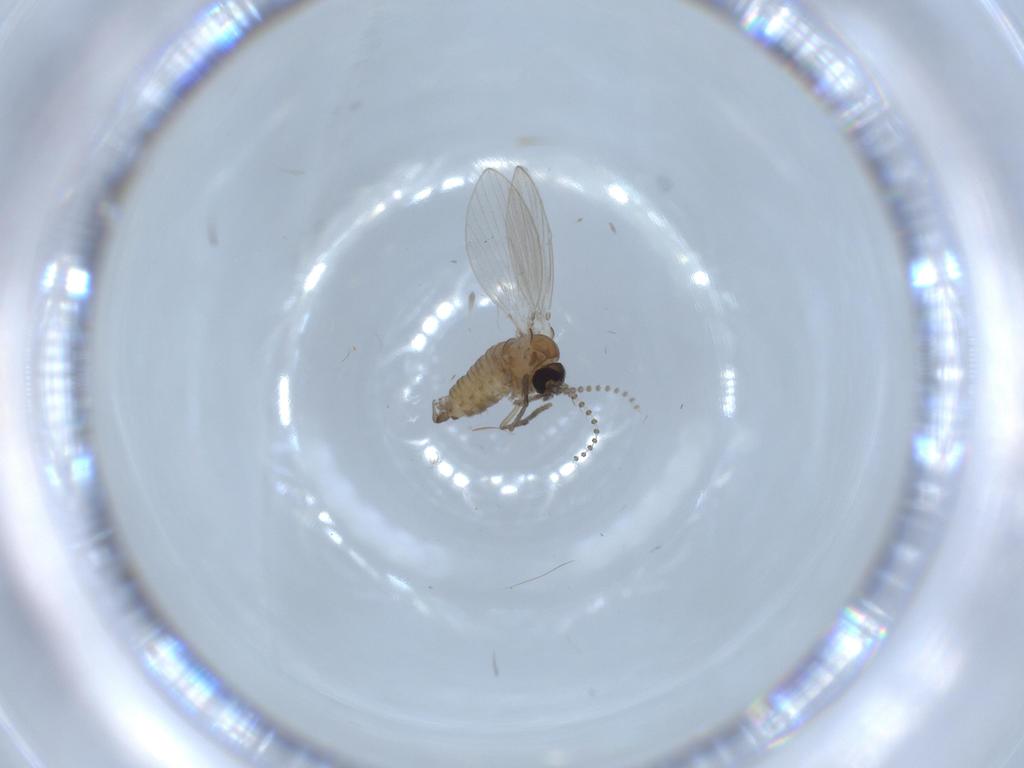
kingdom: Animalia
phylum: Arthropoda
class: Insecta
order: Diptera
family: Psychodidae
